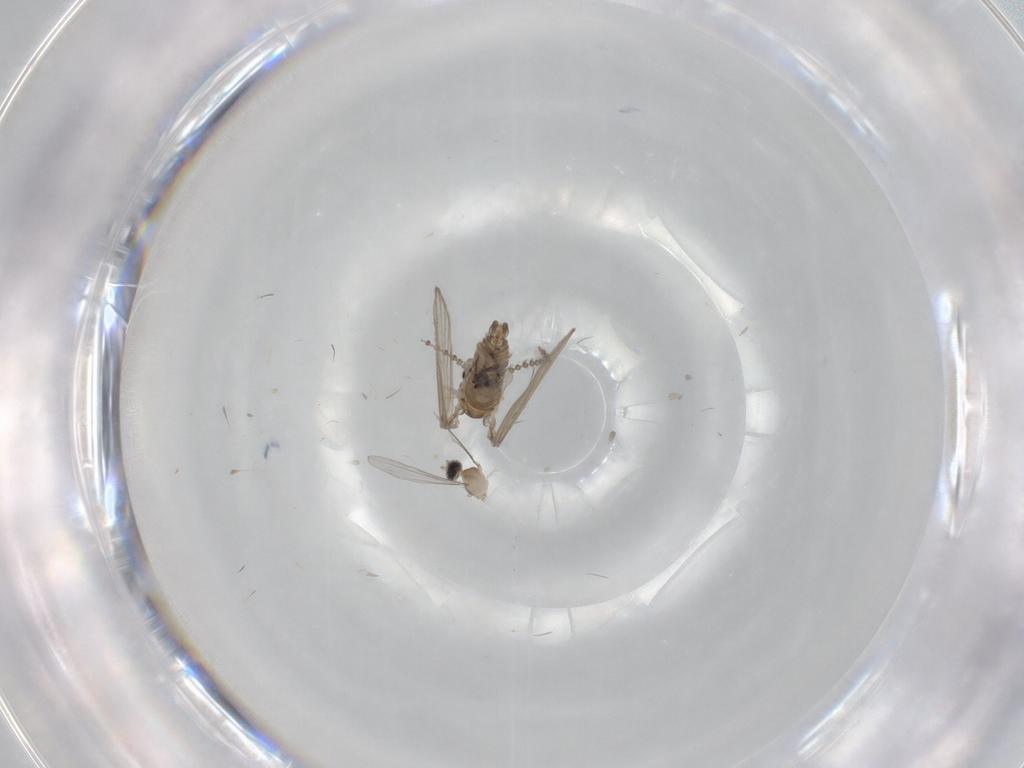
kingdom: Animalia
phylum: Arthropoda
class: Insecta
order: Diptera
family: Psychodidae
